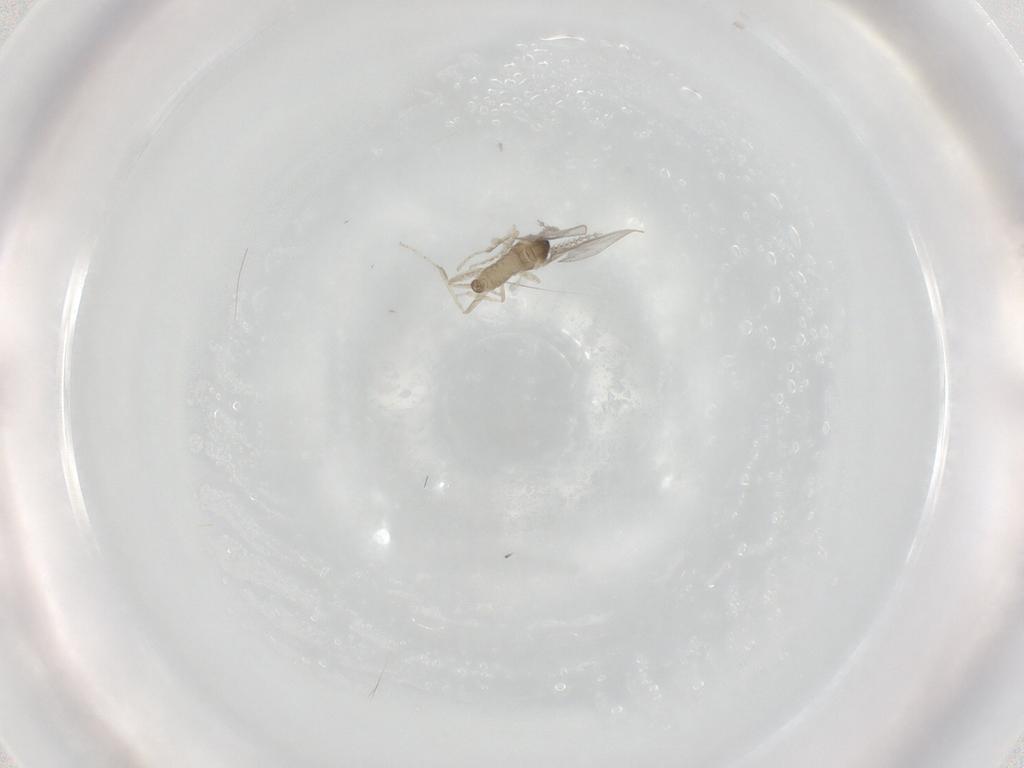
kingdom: Animalia
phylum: Arthropoda
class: Insecta
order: Diptera
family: Cecidomyiidae
